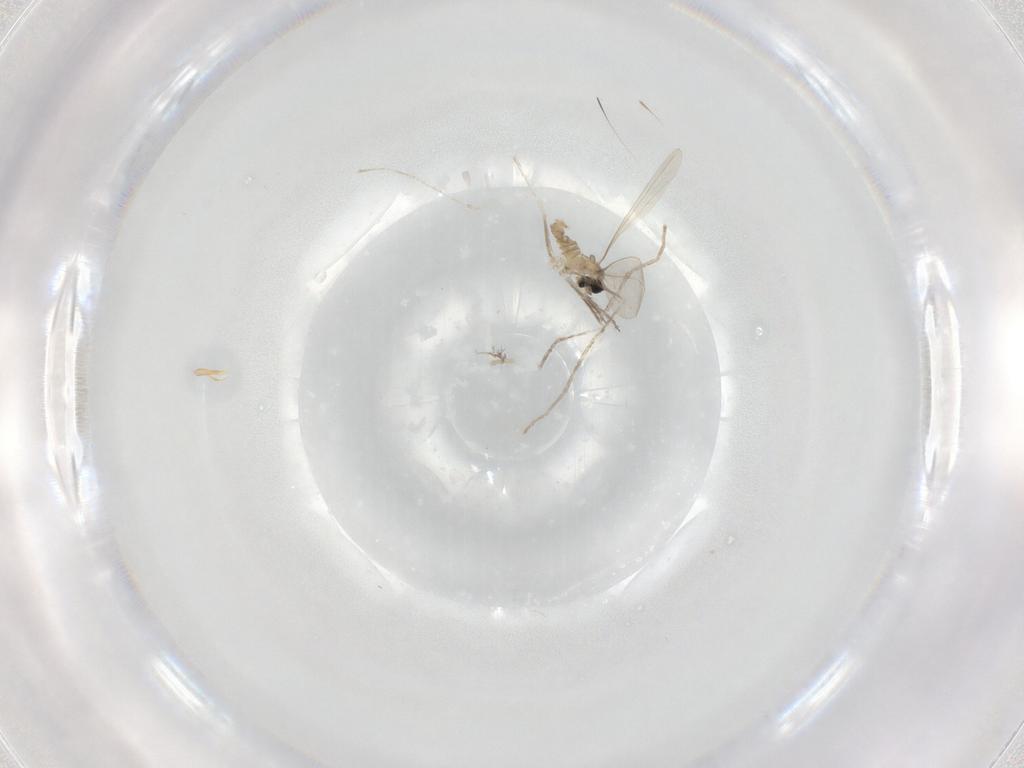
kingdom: Animalia
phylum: Arthropoda
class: Insecta
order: Diptera
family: Cecidomyiidae
